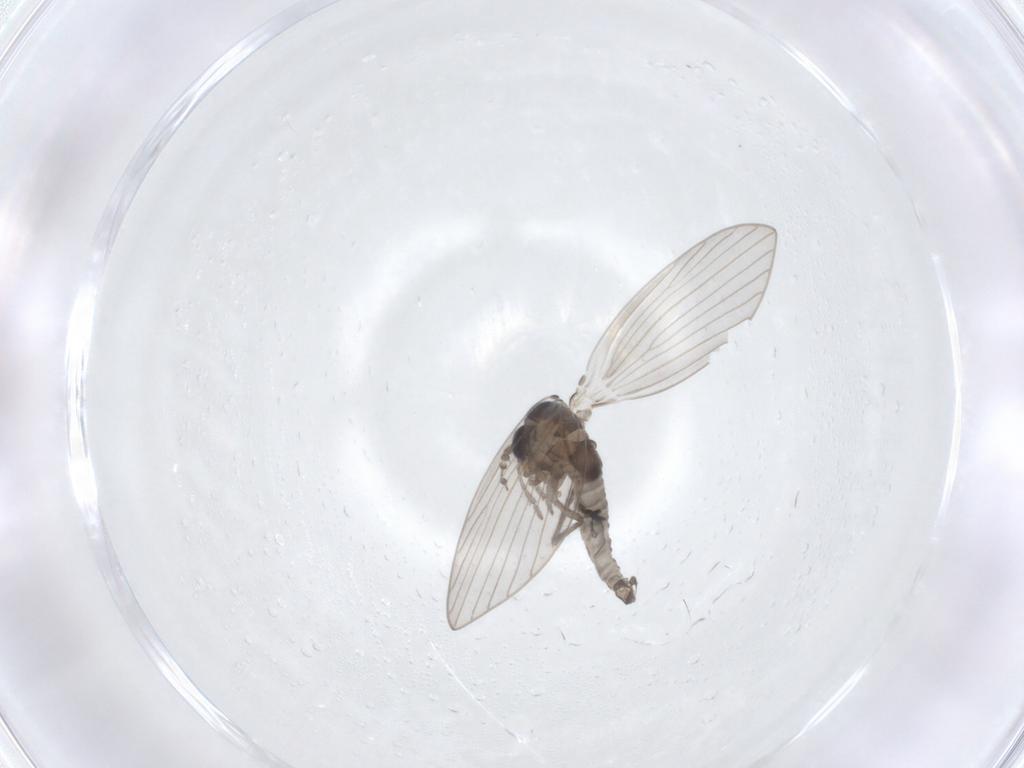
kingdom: Animalia
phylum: Arthropoda
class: Insecta
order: Diptera
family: Psychodidae
